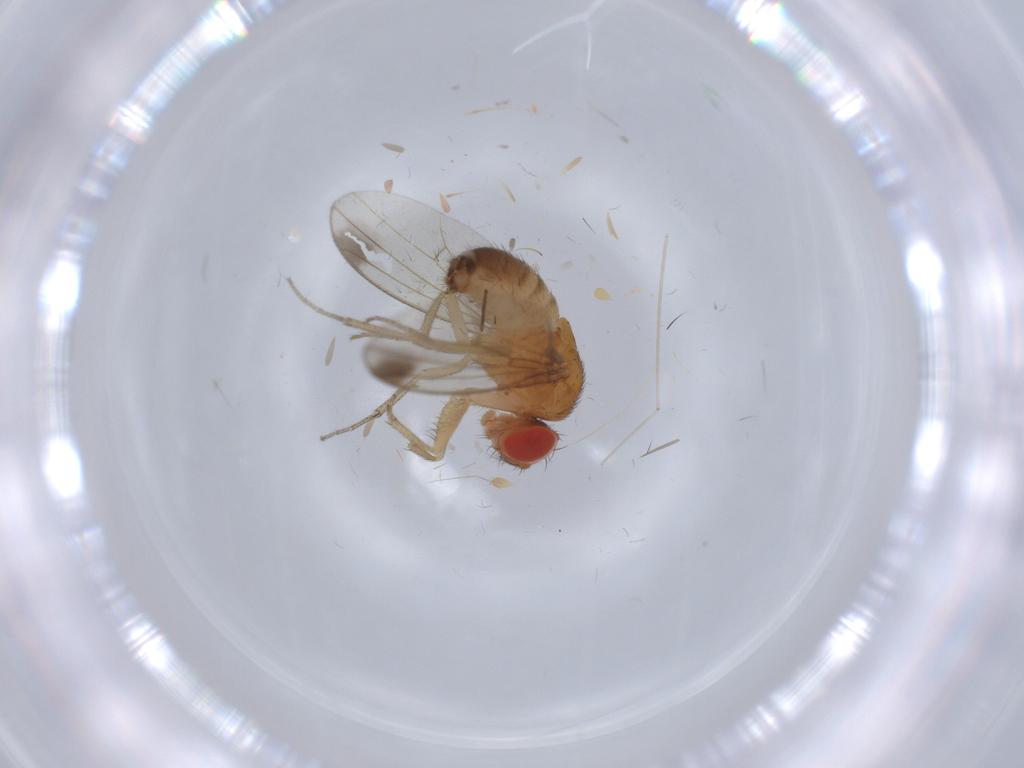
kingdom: Animalia
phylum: Arthropoda
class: Insecta
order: Diptera
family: Drosophilidae
